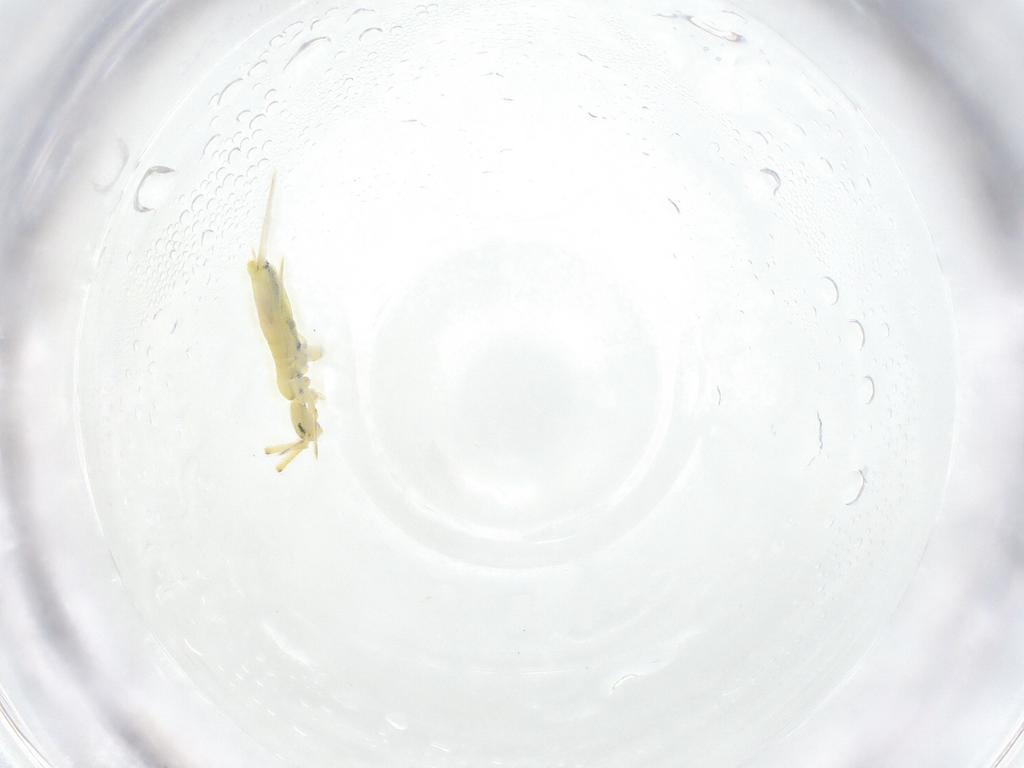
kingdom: Animalia
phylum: Arthropoda
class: Collembola
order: Entomobryomorpha
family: Paronellidae
